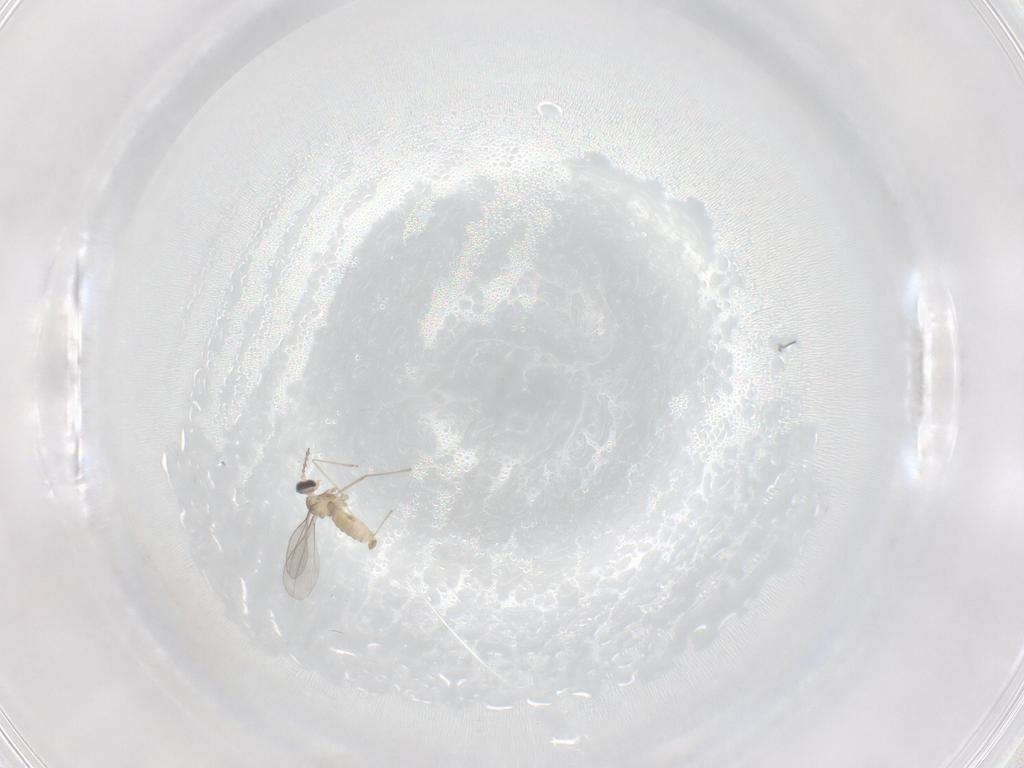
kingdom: Animalia
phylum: Arthropoda
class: Insecta
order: Diptera
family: Cecidomyiidae
